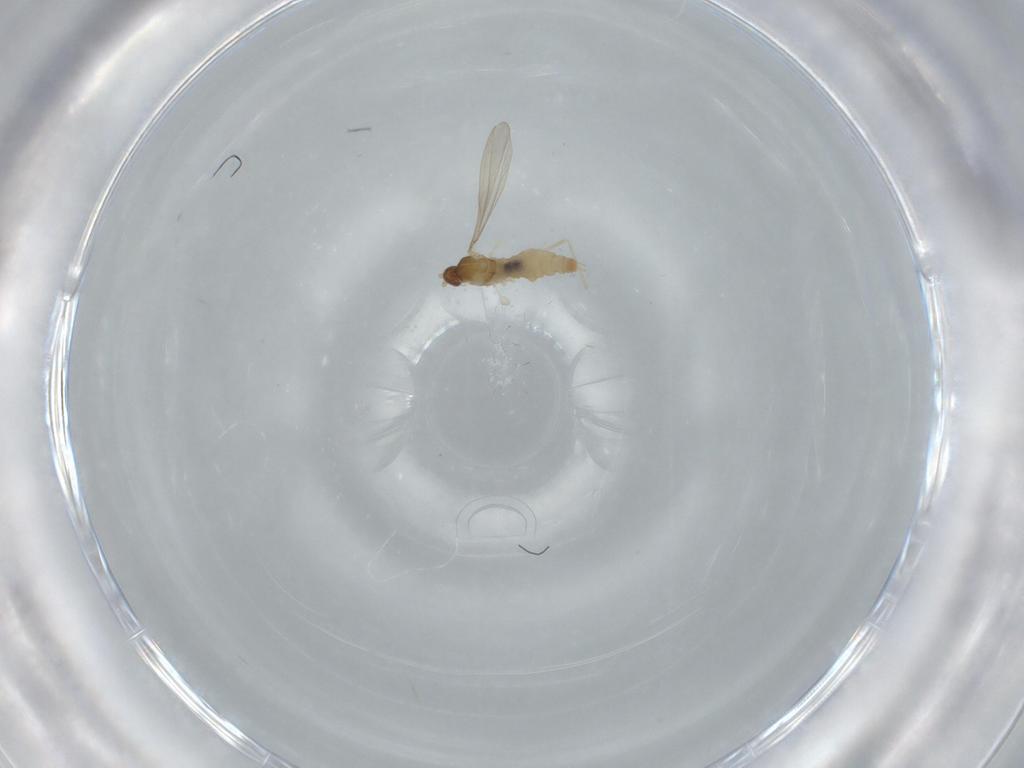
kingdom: Animalia
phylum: Arthropoda
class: Insecta
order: Diptera
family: Cecidomyiidae
